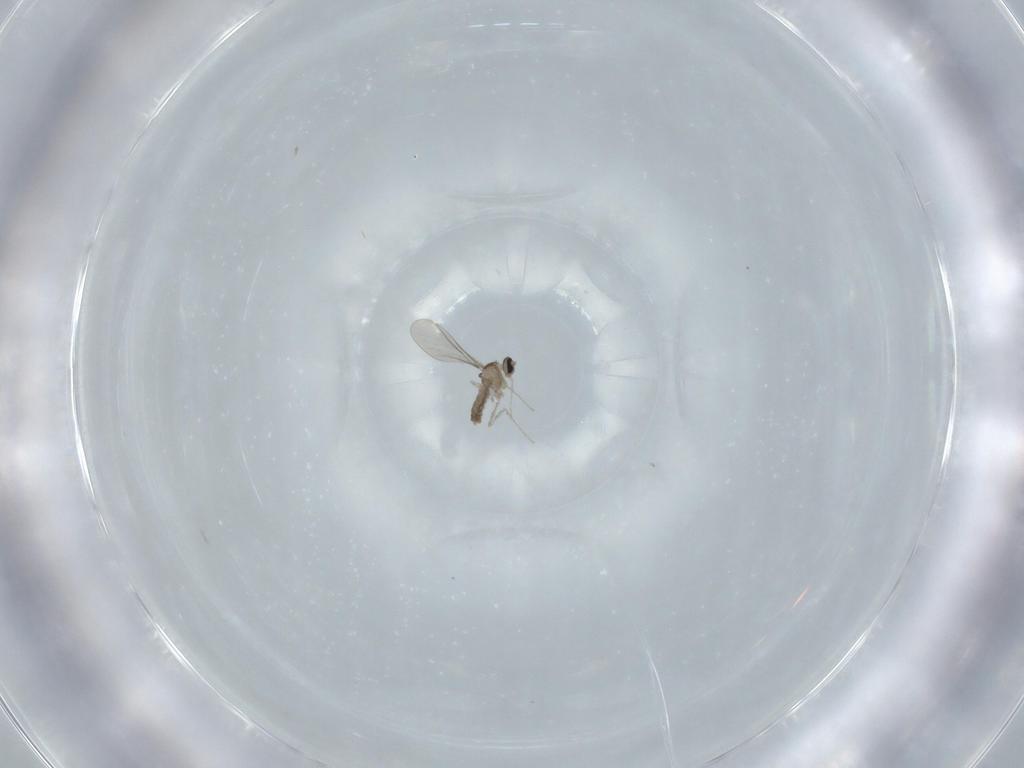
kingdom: Animalia
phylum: Arthropoda
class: Insecta
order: Diptera
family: Cecidomyiidae
